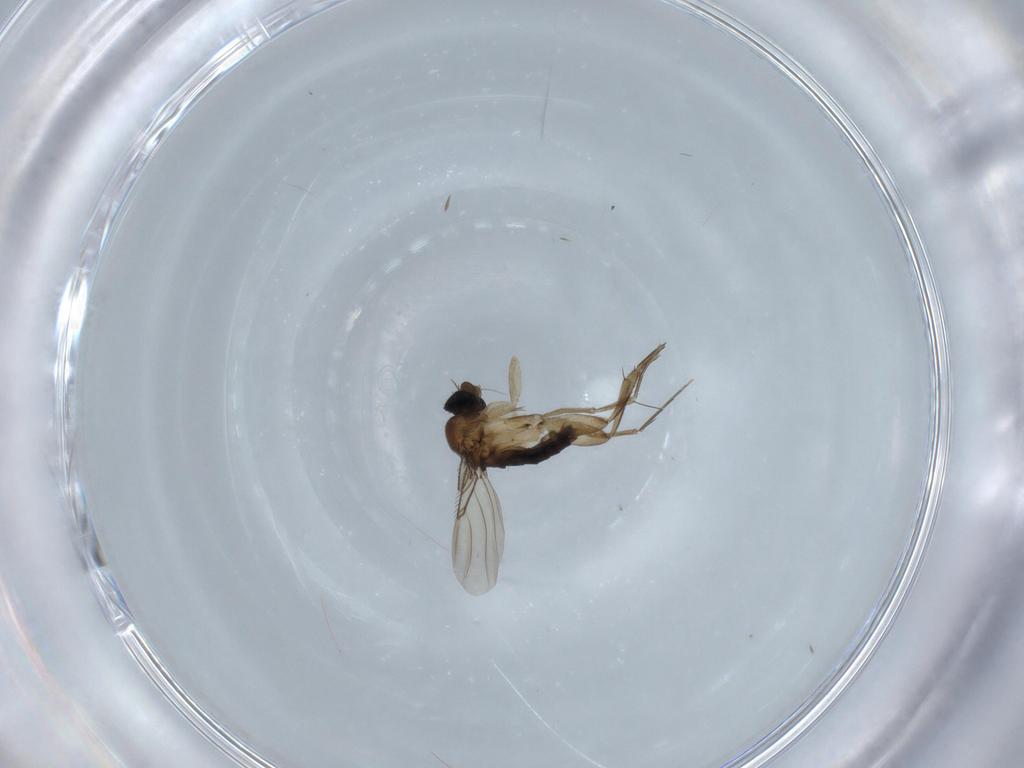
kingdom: Animalia
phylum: Arthropoda
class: Insecta
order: Diptera
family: Phoridae
